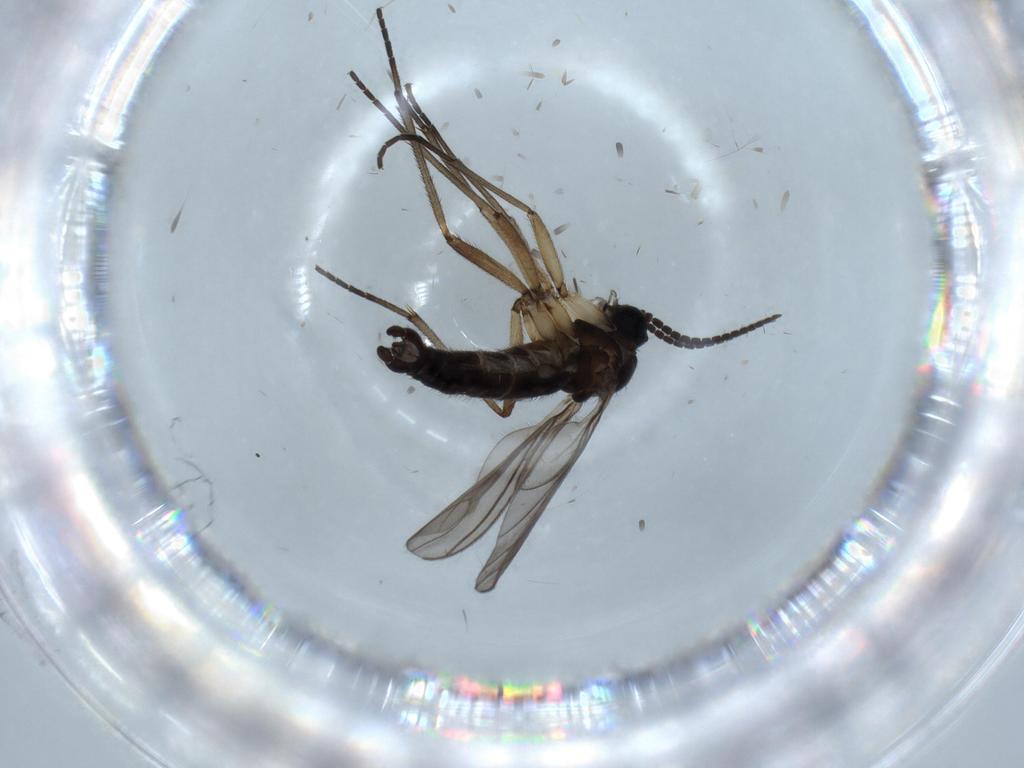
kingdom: Animalia
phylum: Arthropoda
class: Insecta
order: Diptera
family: Sciaridae
